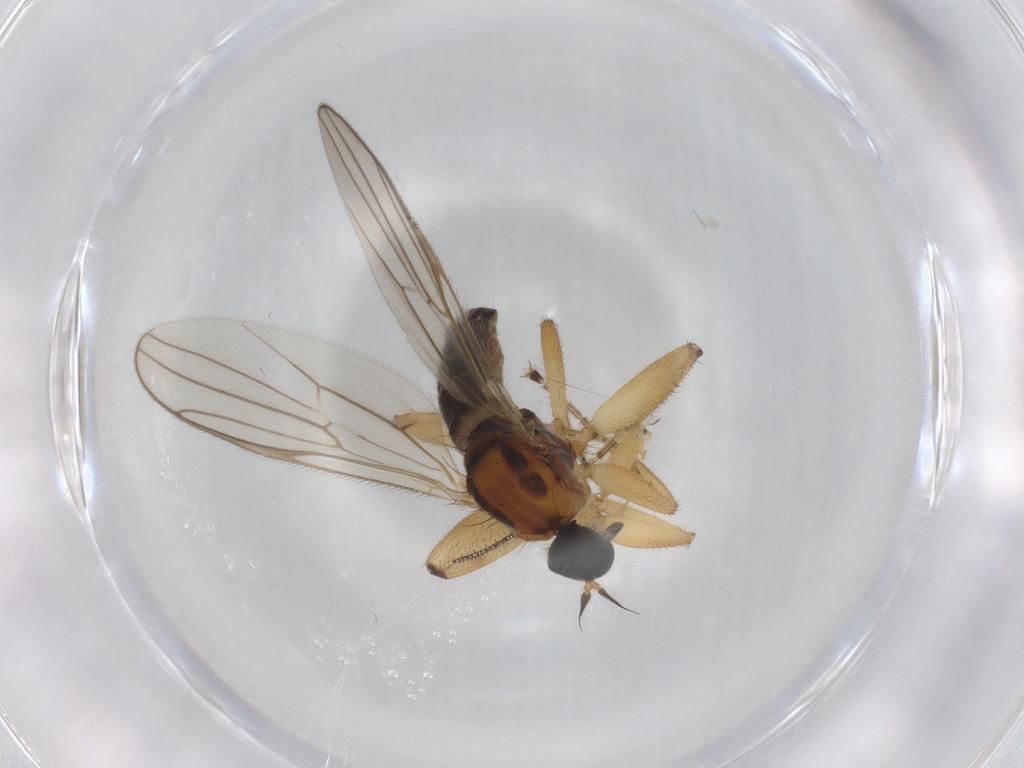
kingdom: Animalia
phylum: Arthropoda
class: Insecta
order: Diptera
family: Hybotidae
